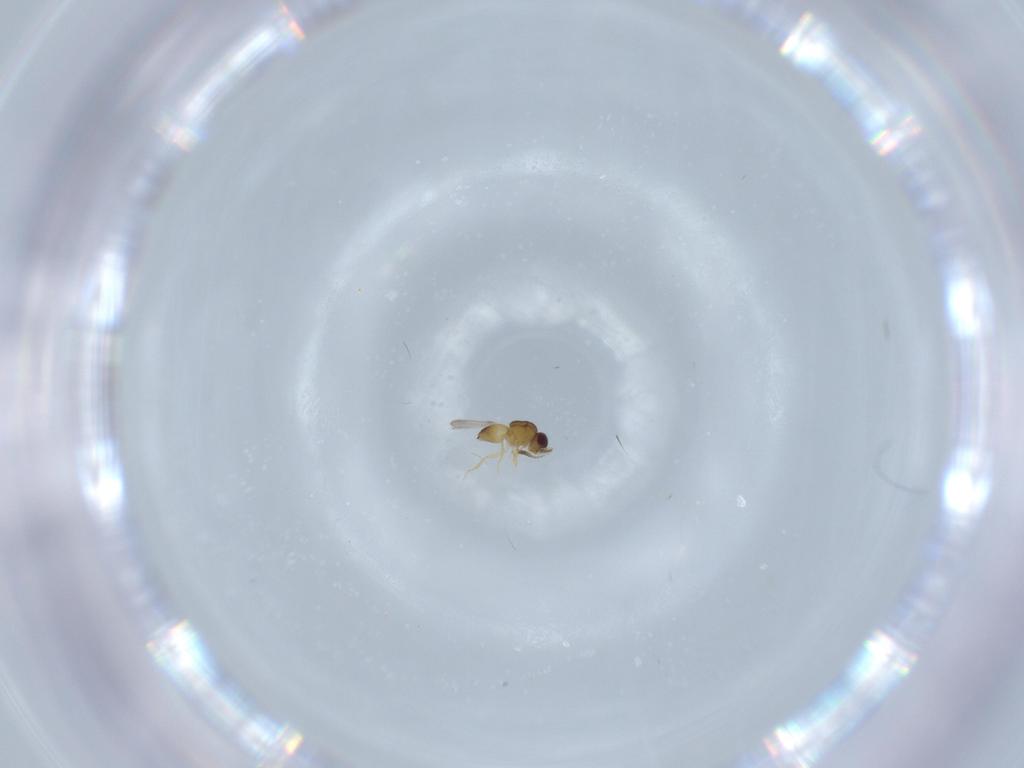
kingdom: Animalia
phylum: Arthropoda
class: Insecta
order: Hymenoptera
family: Ceraphronidae
